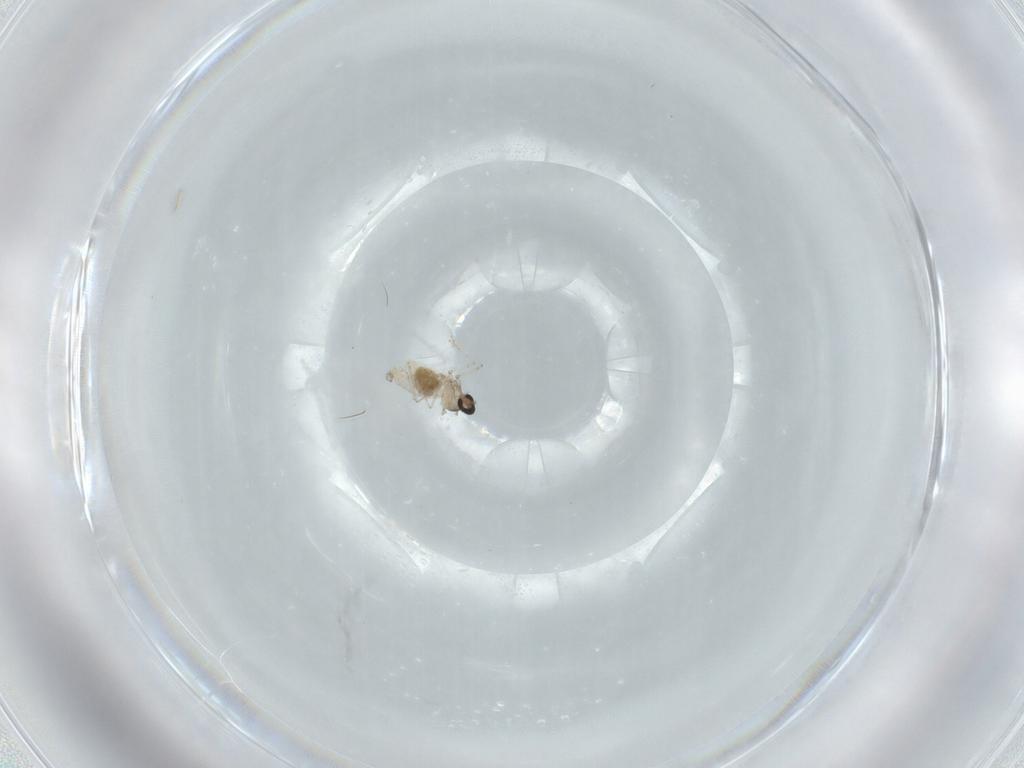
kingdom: Animalia
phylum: Arthropoda
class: Insecta
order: Diptera
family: Cecidomyiidae
